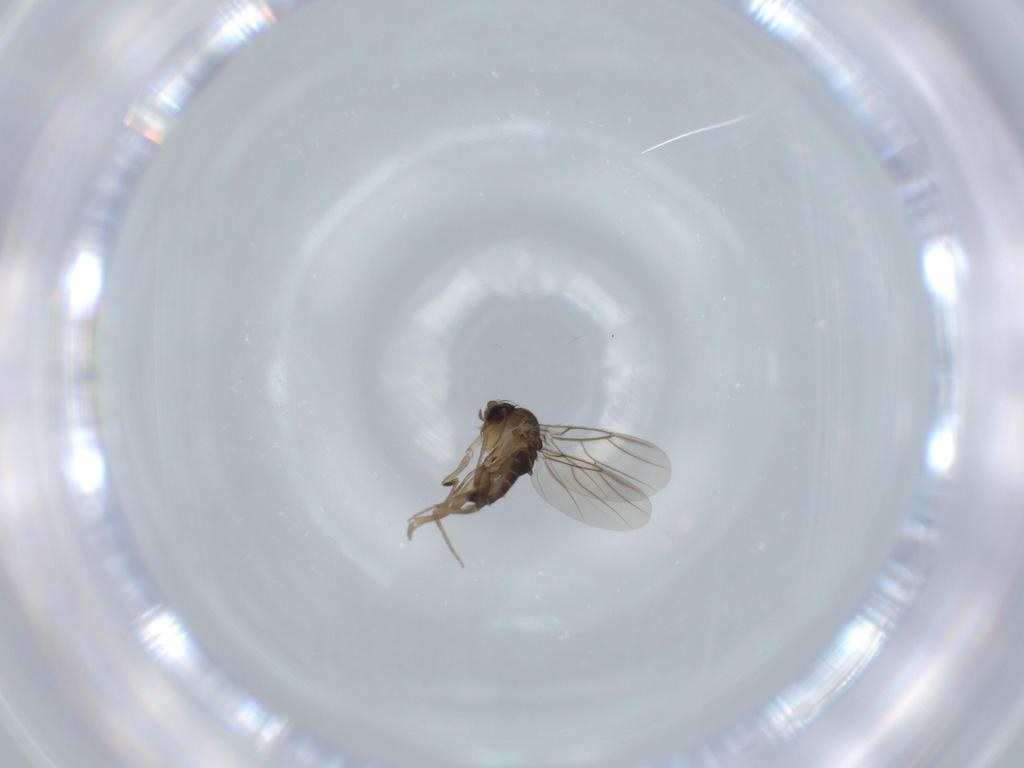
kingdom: Animalia
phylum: Arthropoda
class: Insecta
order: Diptera
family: Phoridae
